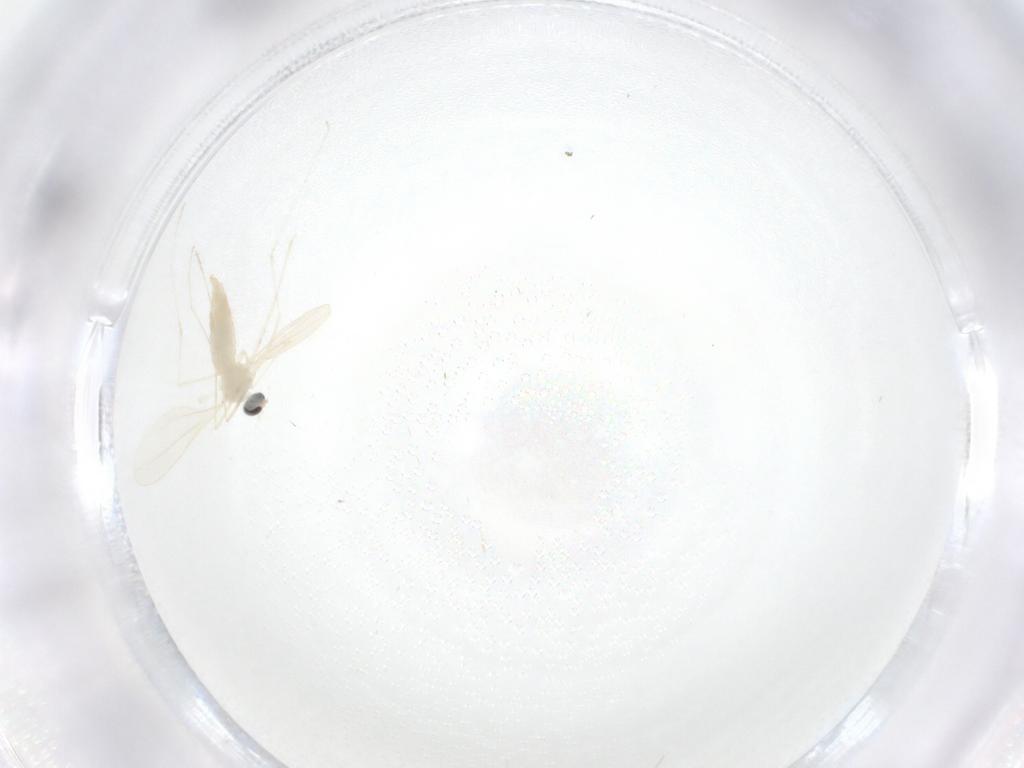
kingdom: Animalia
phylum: Arthropoda
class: Insecta
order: Diptera
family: Cecidomyiidae
